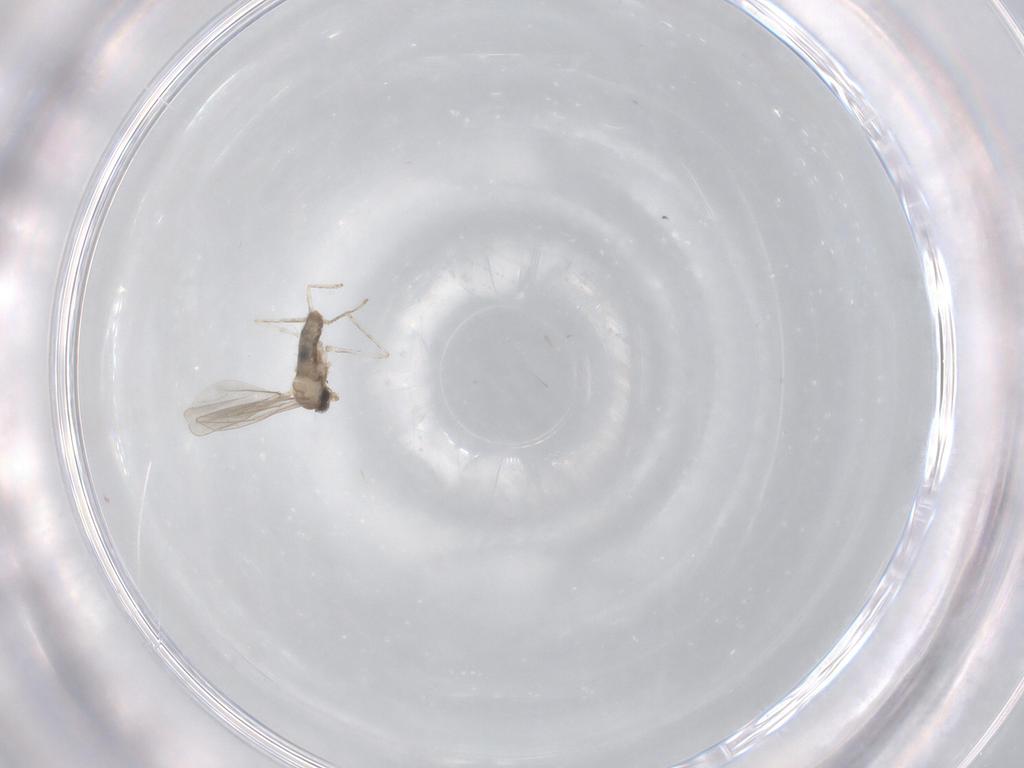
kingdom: Animalia
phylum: Arthropoda
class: Insecta
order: Diptera
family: Cecidomyiidae
